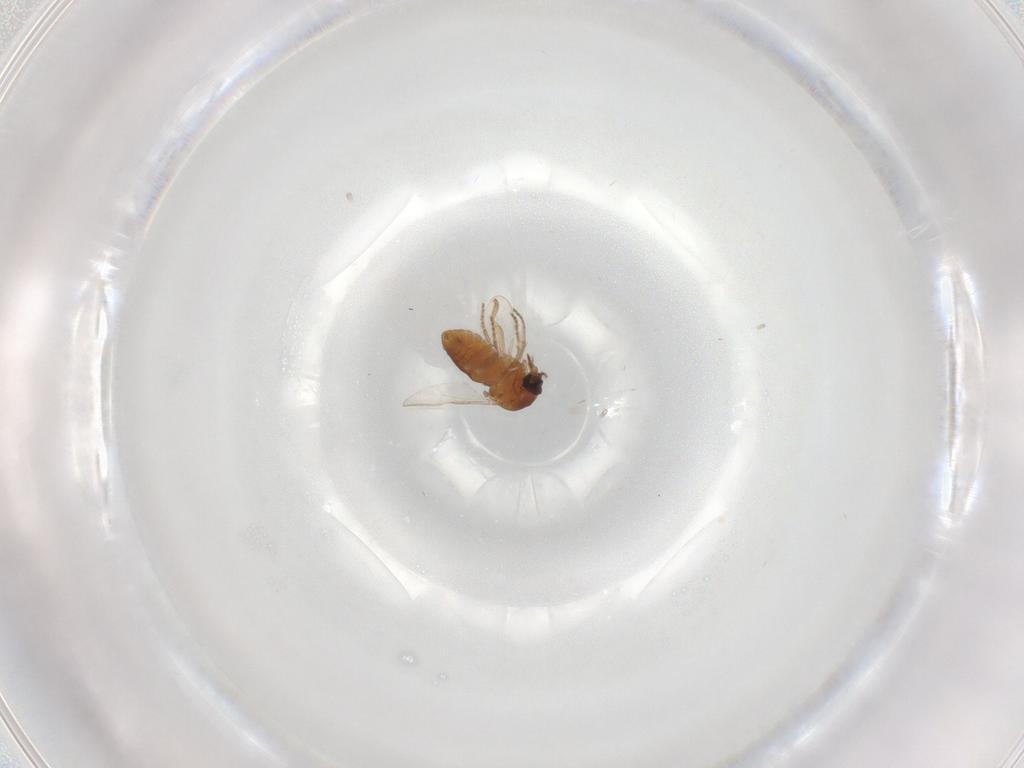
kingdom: Animalia
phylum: Arthropoda
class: Insecta
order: Diptera
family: Ceratopogonidae
